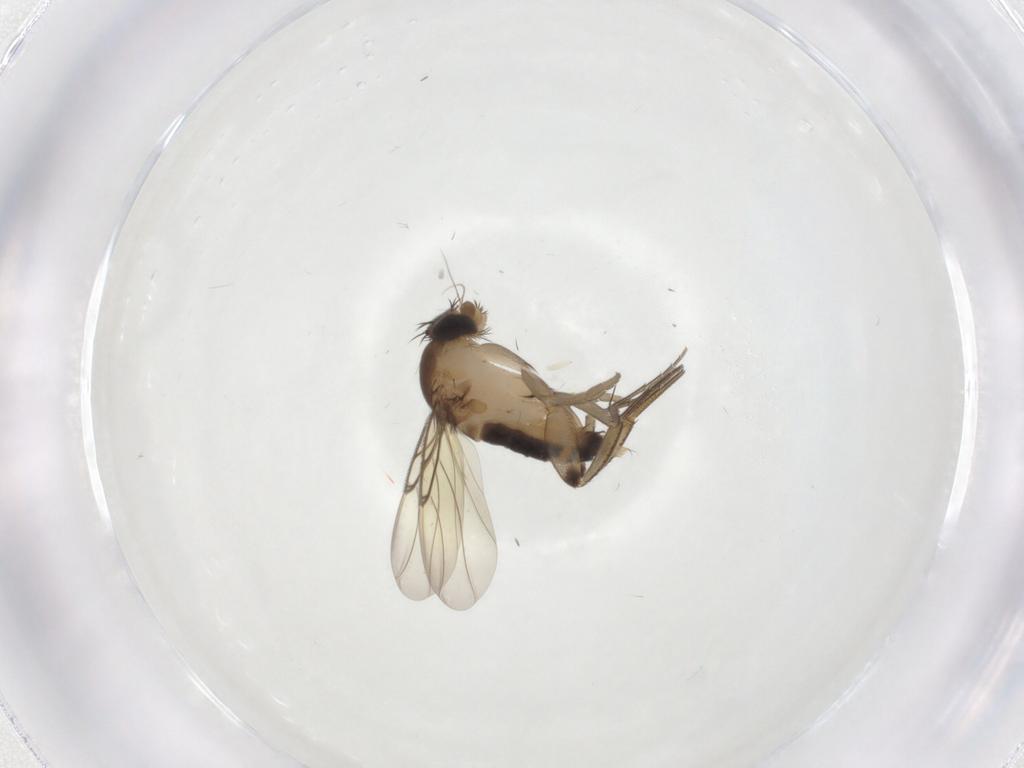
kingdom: Animalia
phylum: Arthropoda
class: Insecta
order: Diptera
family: Phoridae
